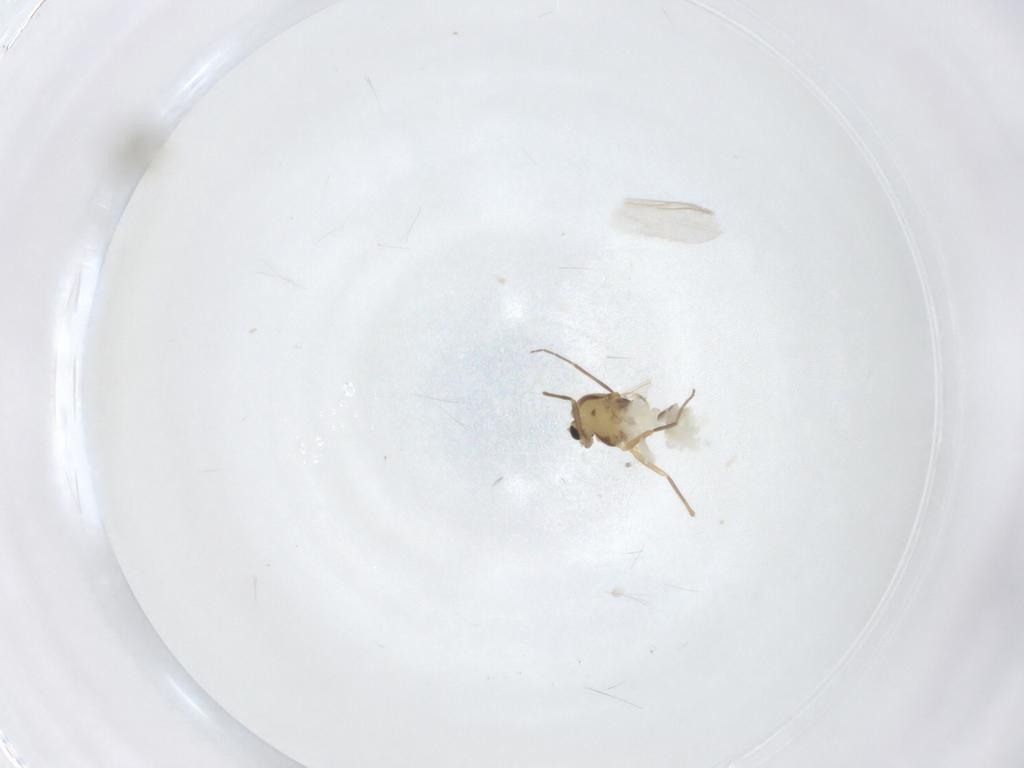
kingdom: Animalia
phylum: Arthropoda
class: Insecta
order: Diptera
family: Chironomidae
